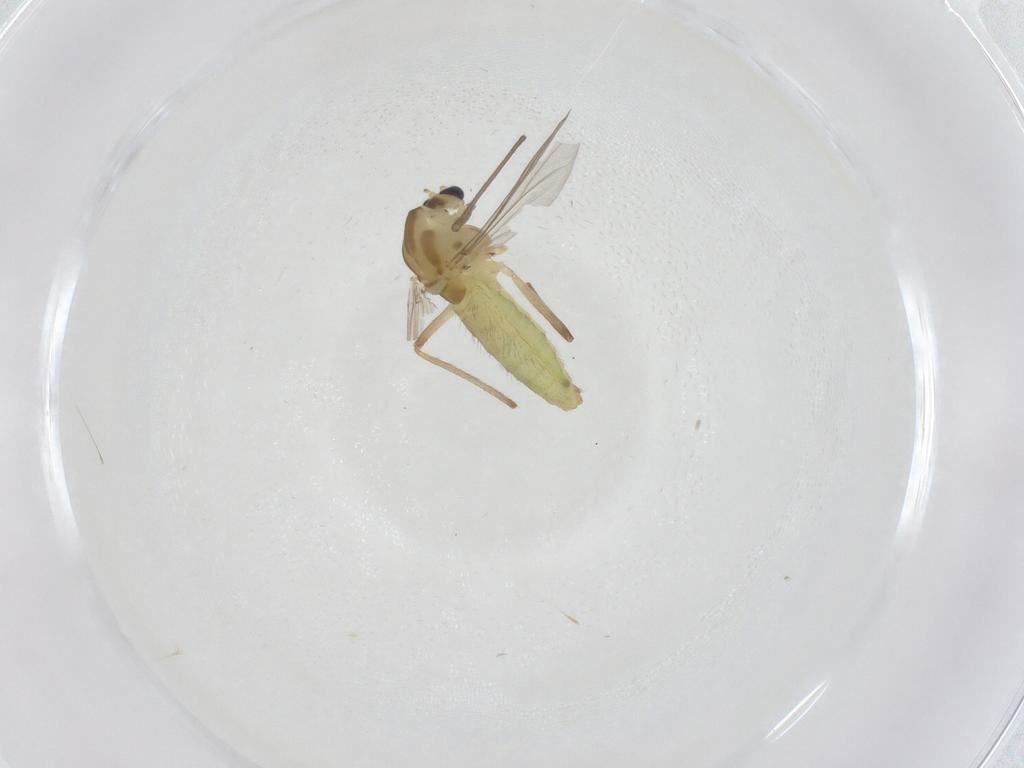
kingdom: Animalia
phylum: Arthropoda
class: Insecta
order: Diptera
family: Chironomidae
